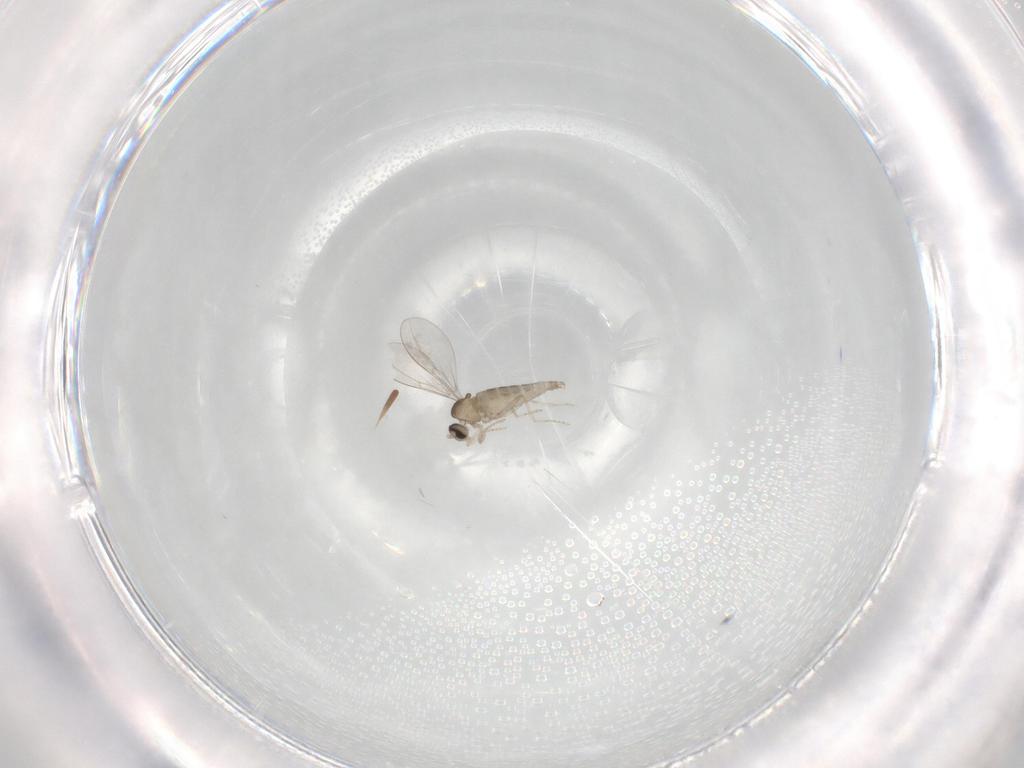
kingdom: Animalia
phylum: Arthropoda
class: Insecta
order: Diptera
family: Cecidomyiidae
